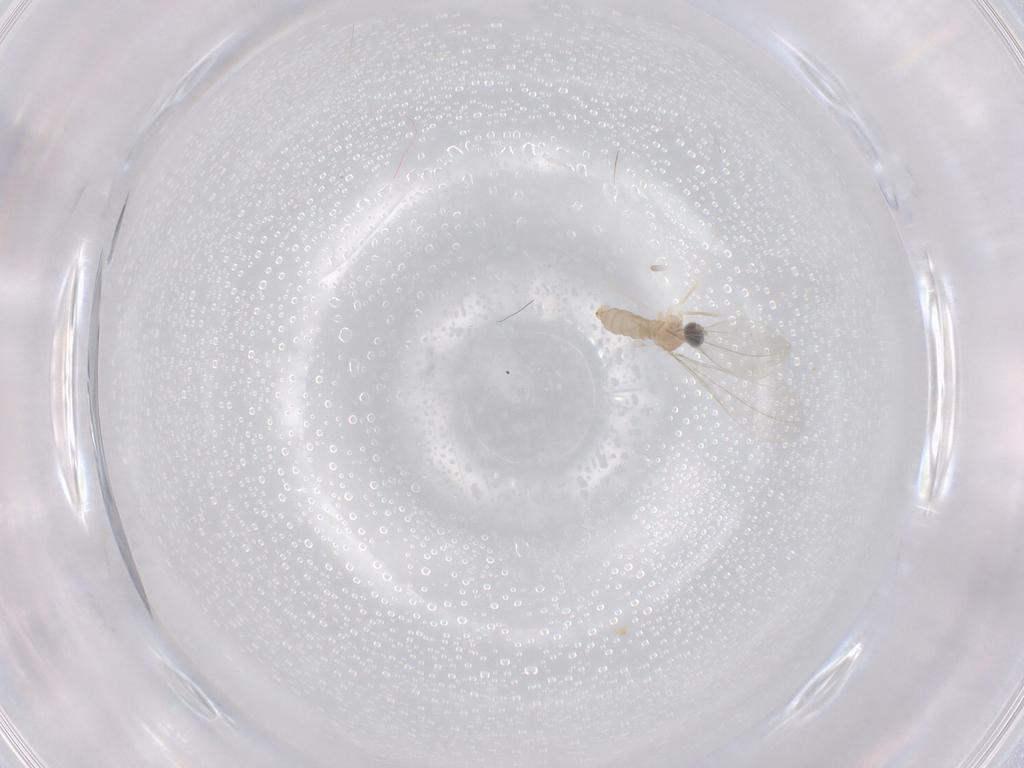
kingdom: Animalia
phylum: Arthropoda
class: Insecta
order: Diptera
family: Cecidomyiidae
